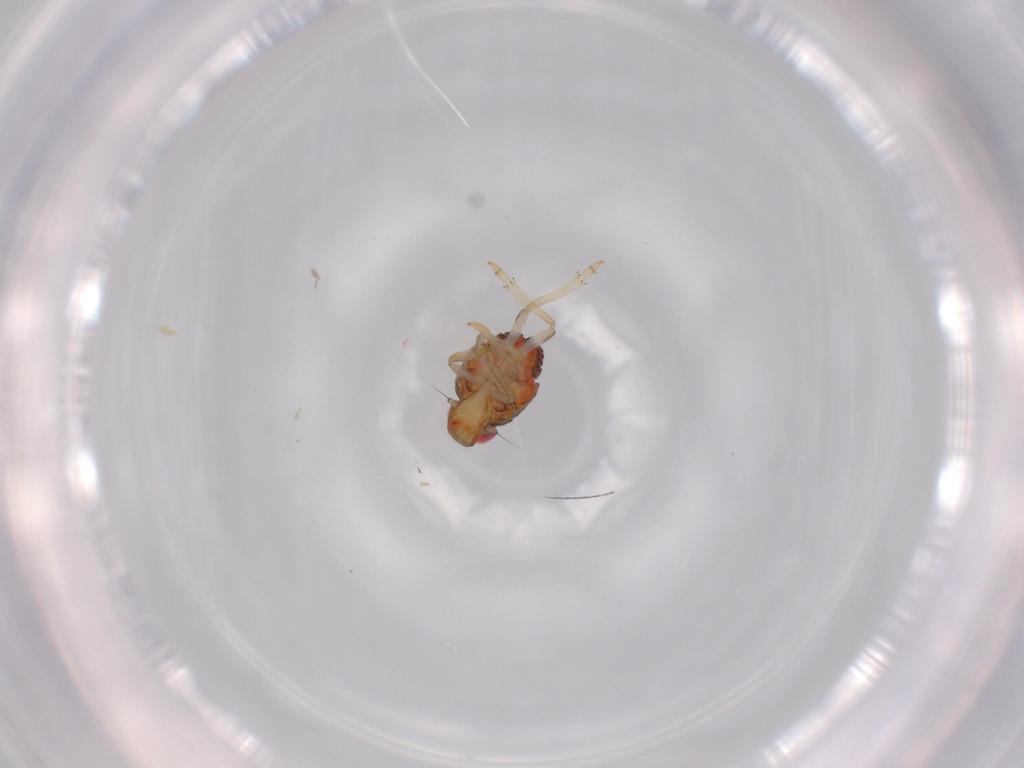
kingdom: Animalia
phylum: Arthropoda
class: Insecta
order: Hemiptera
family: Issidae
